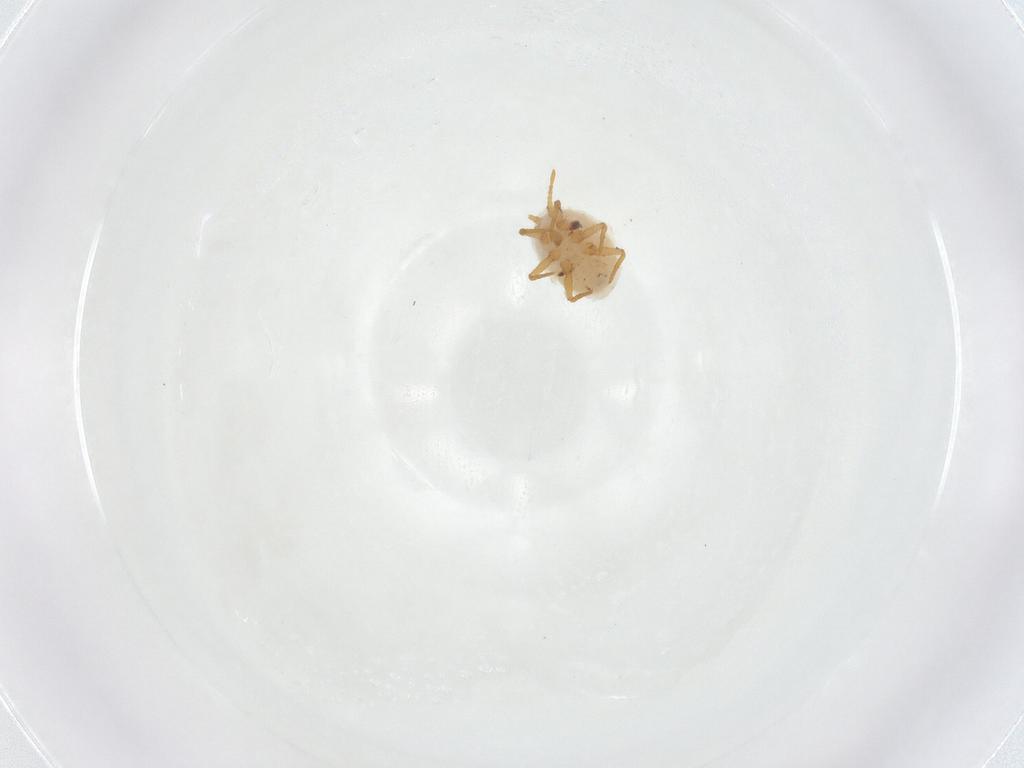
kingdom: Animalia
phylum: Arthropoda
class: Insecta
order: Hemiptera
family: Ortheziidae
